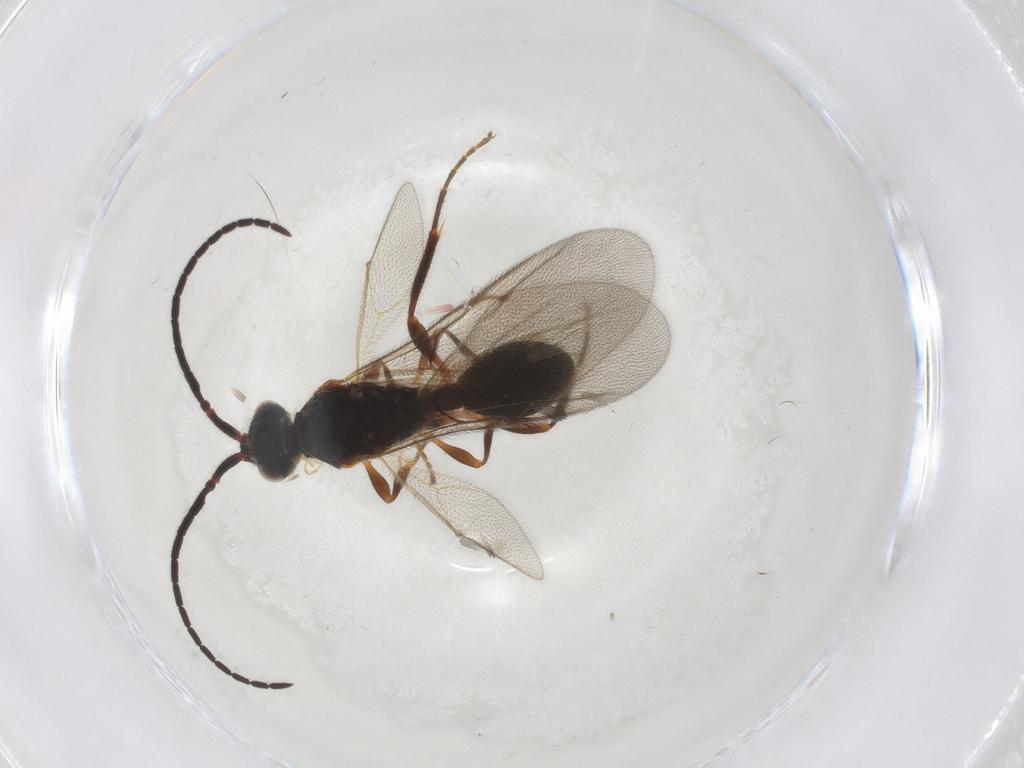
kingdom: Animalia
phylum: Arthropoda
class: Insecta
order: Hymenoptera
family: Diapriidae
